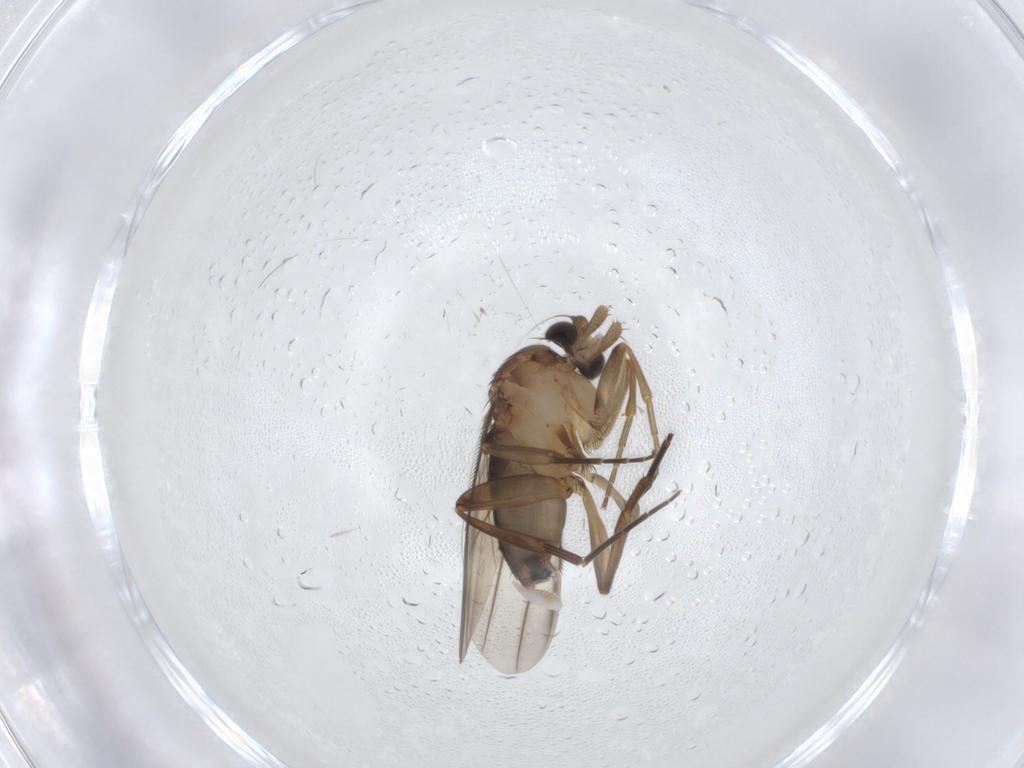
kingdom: Animalia
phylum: Arthropoda
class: Insecta
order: Diptera
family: Phoridae
